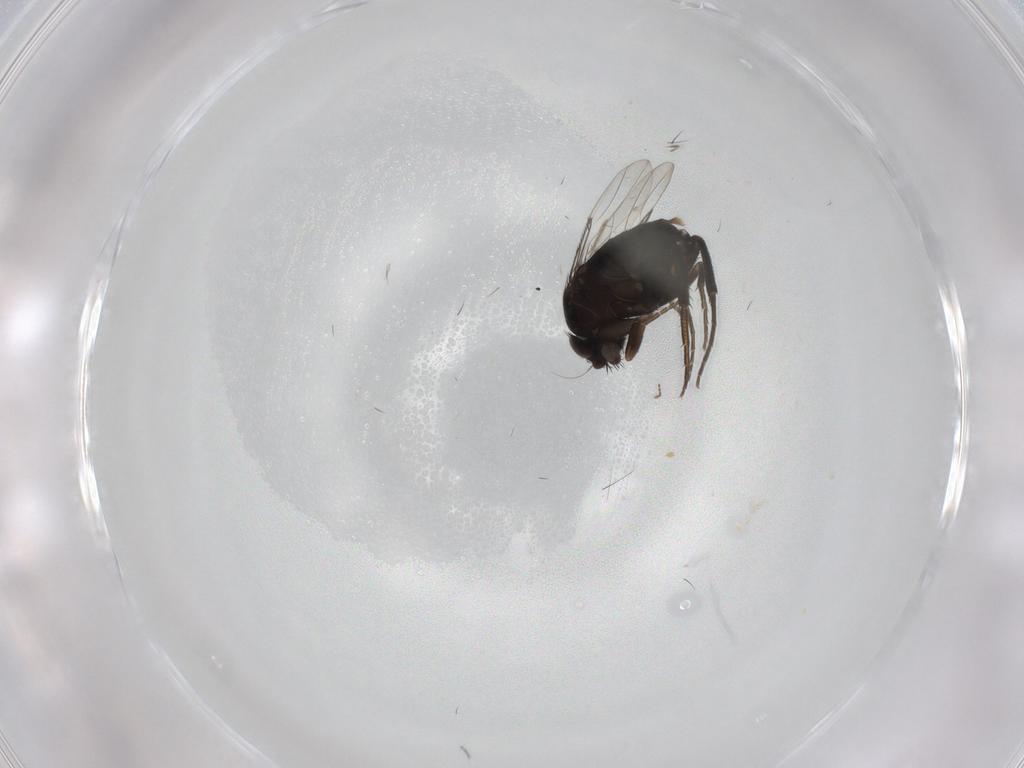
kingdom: Animalia
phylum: Arthropoda
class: Insecta
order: Diptera
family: Phoridae
